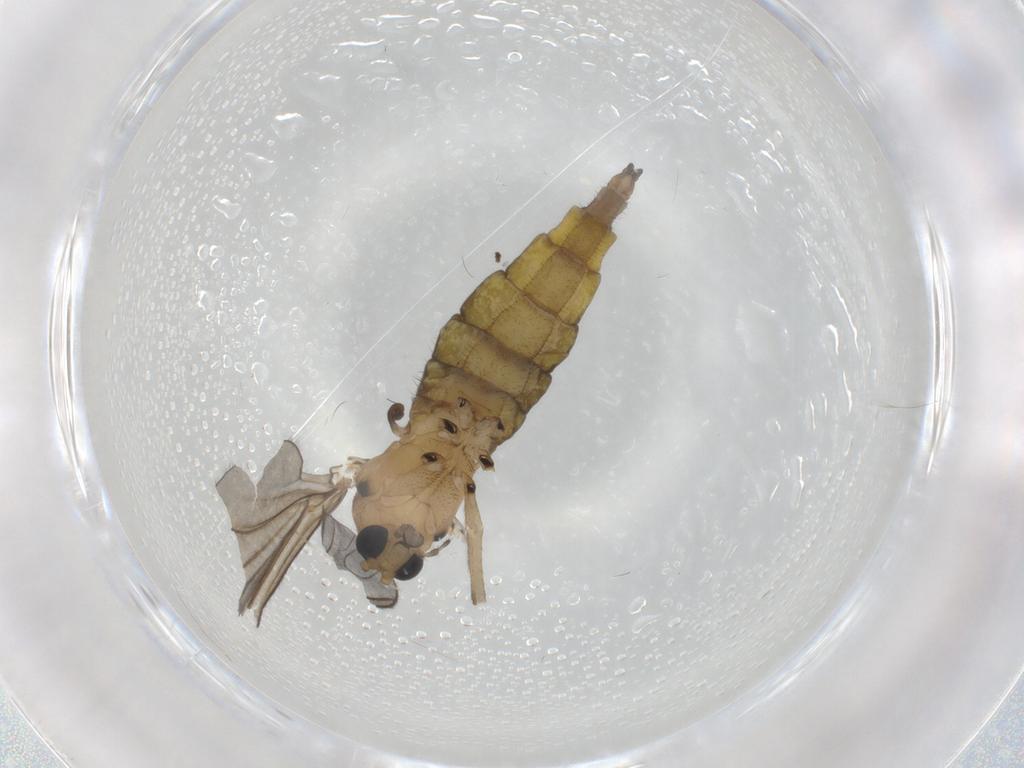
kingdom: Animalia
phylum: Arthropoda
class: Insecta
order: Diptera
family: Sciaridae
